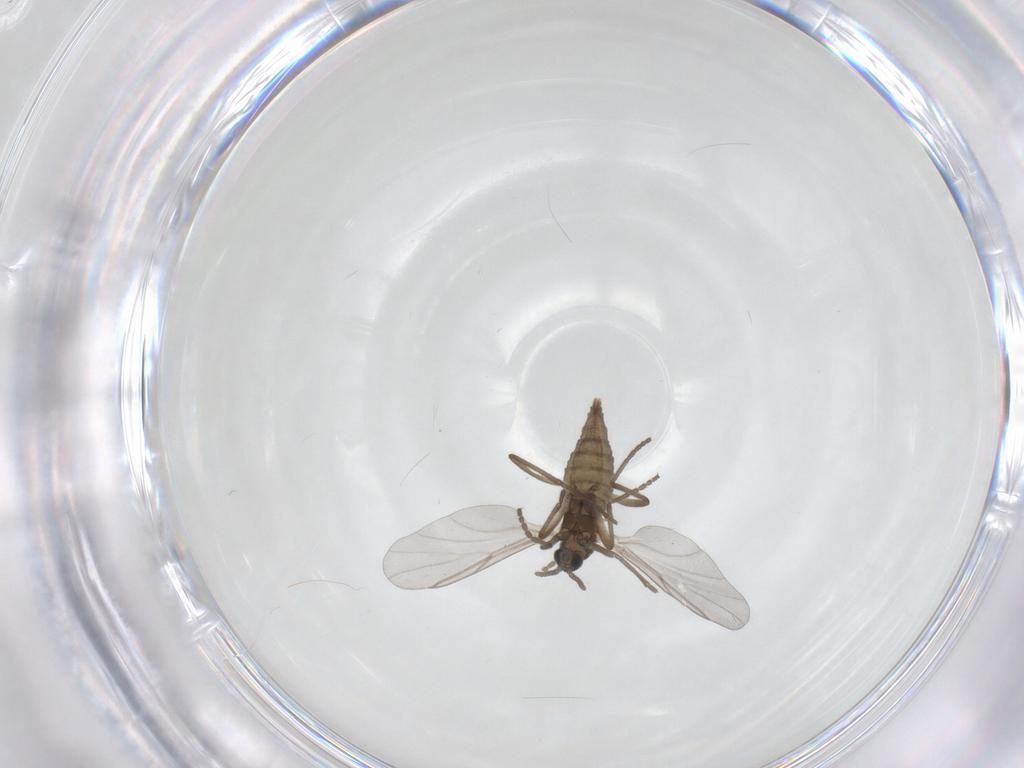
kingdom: Animalia
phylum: Arthropoda
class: Insecta
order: Diptera
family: Cecidomyiidae
